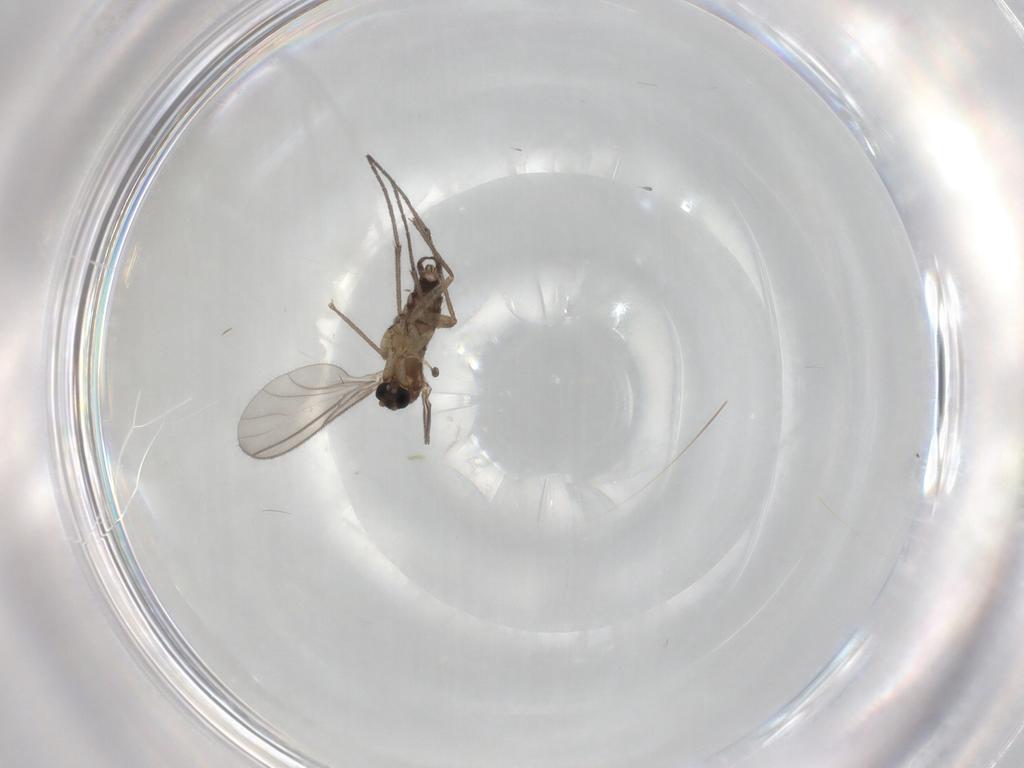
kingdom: Animalia
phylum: Arthropoda
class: Insecta
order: Diptera
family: Sciaridae
